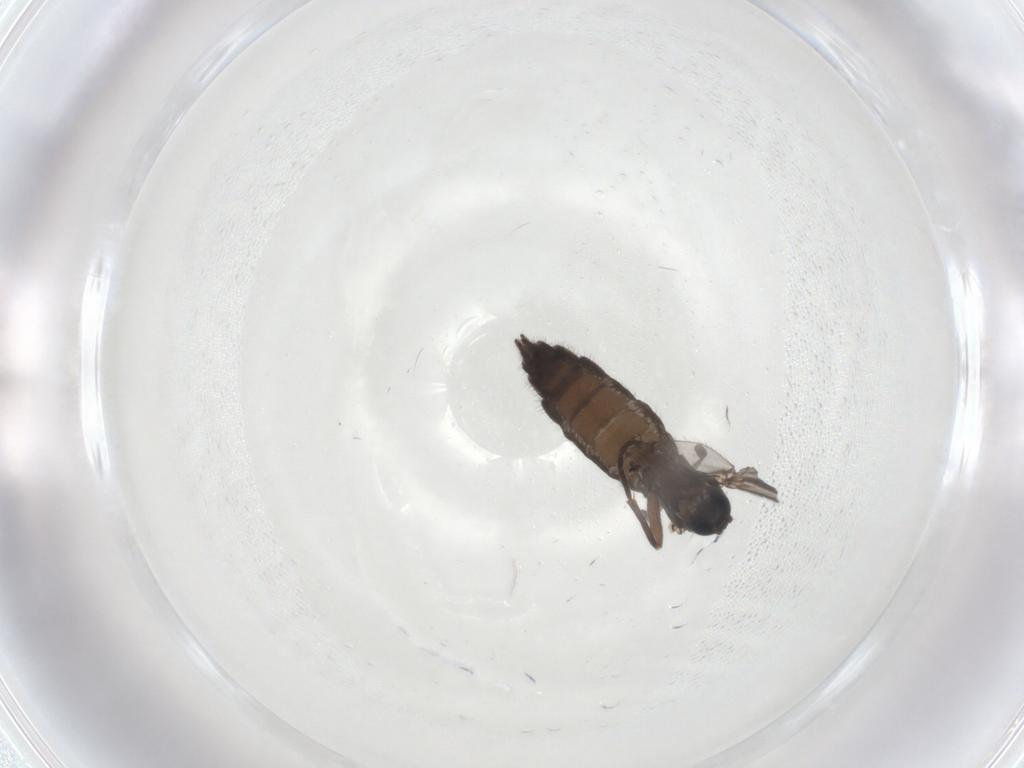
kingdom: Animalia
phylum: Arthropoda
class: Insecta
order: Diptera
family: Sciaridae
